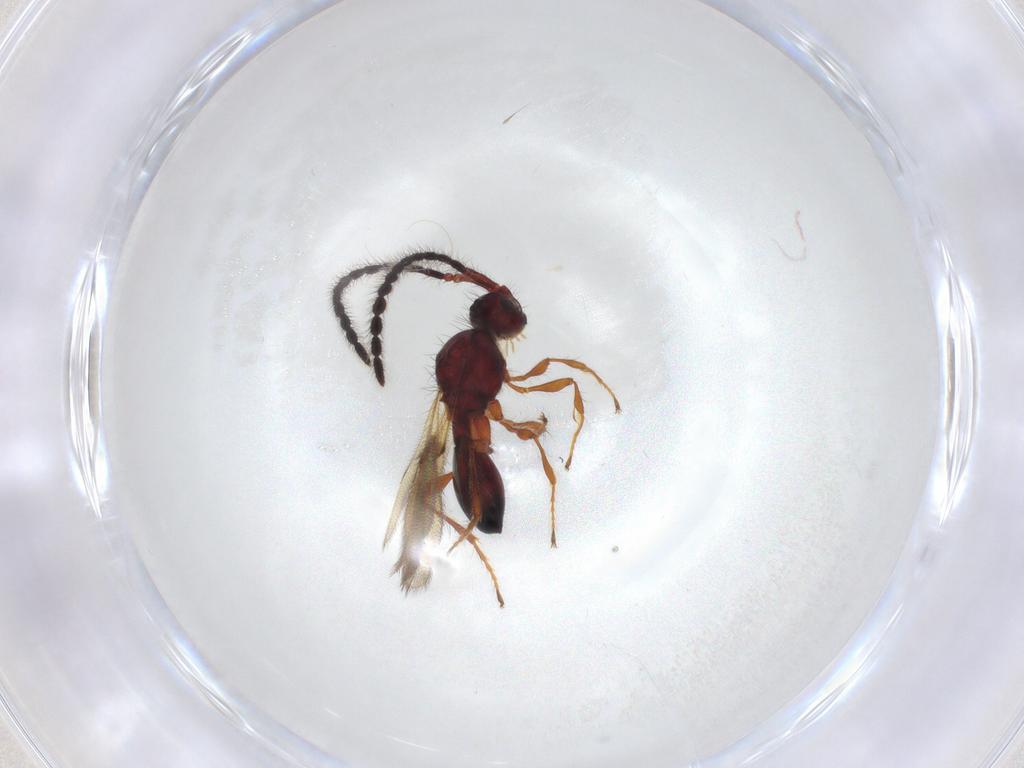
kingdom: Animalia
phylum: Arthropoda
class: Insecta
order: Hymenoptera
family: Diapriidae
